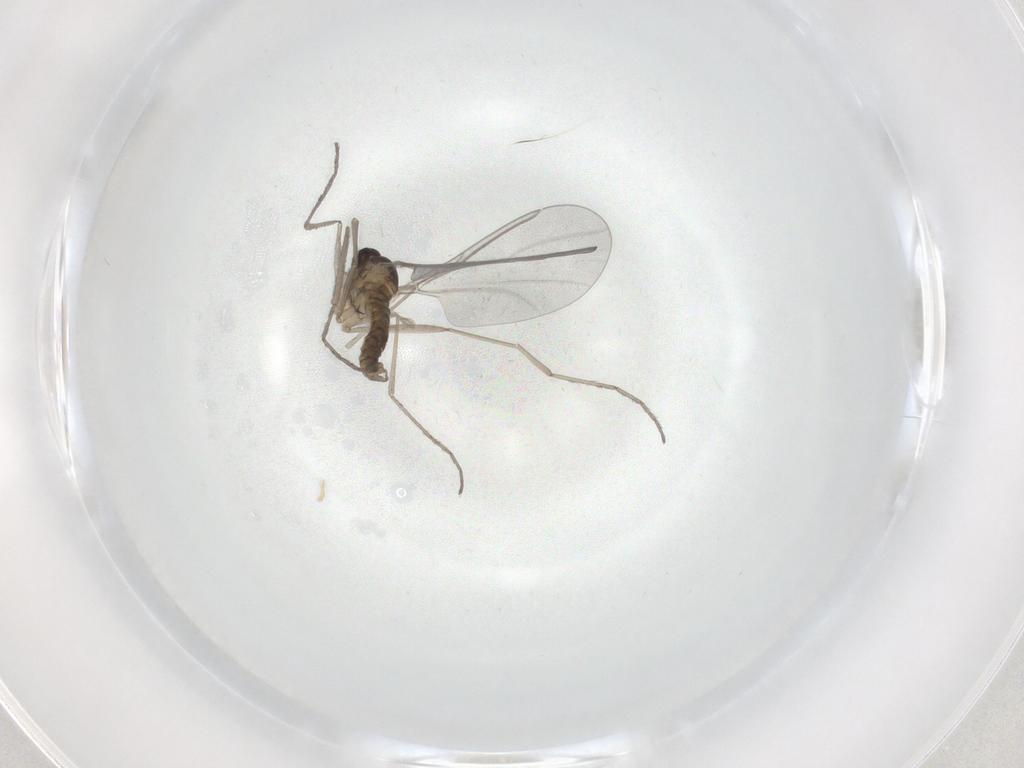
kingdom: Animalia
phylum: Arthropoda
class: Insecta
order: Diptera
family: Cecidomyiidae
